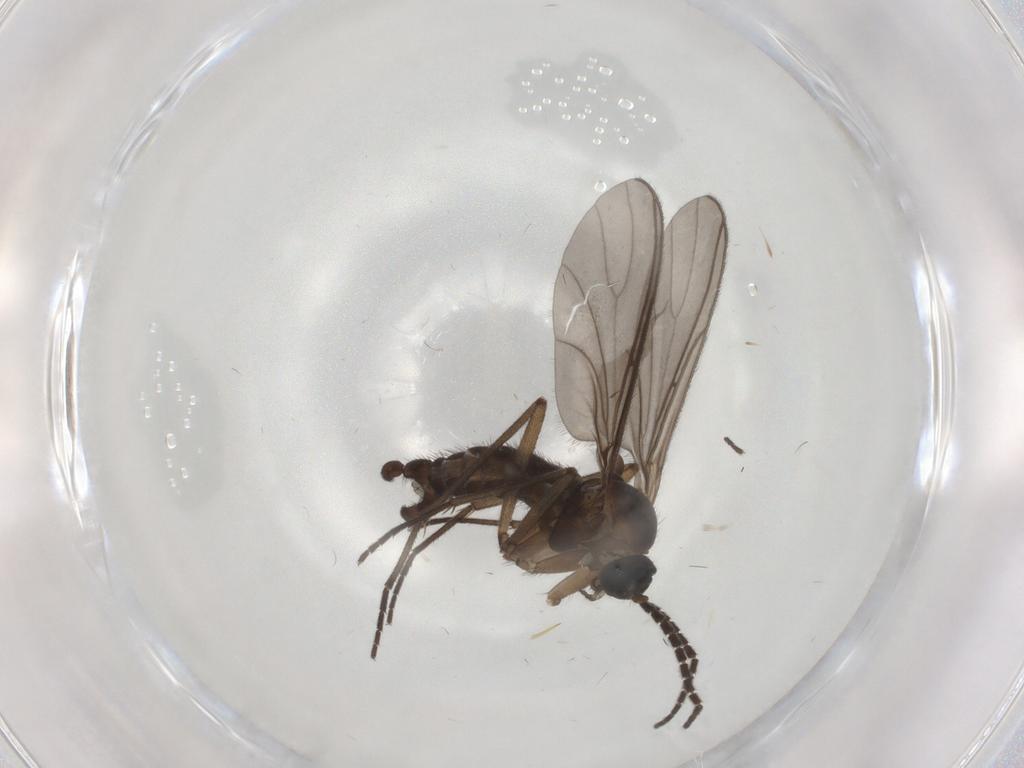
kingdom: Animalia
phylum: Arthropoda
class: Insecta
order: Diptera
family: Sciaridae
